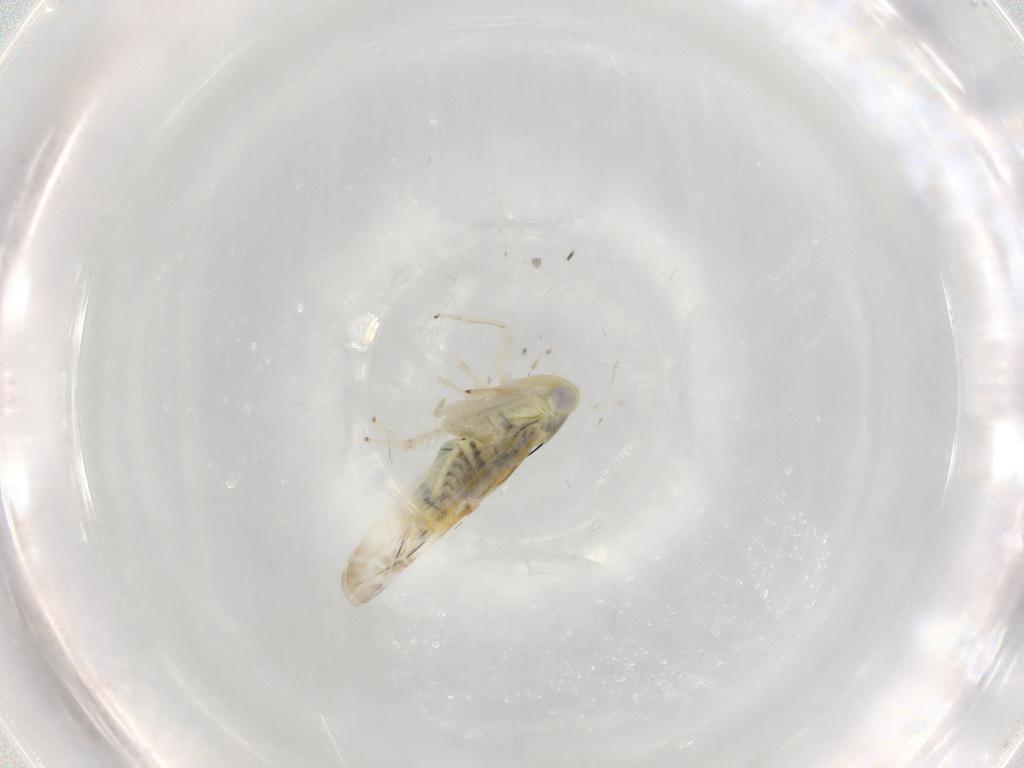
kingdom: Animalia
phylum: Arthropoda
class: Insecta
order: Hemiptera
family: Cicadellidae
